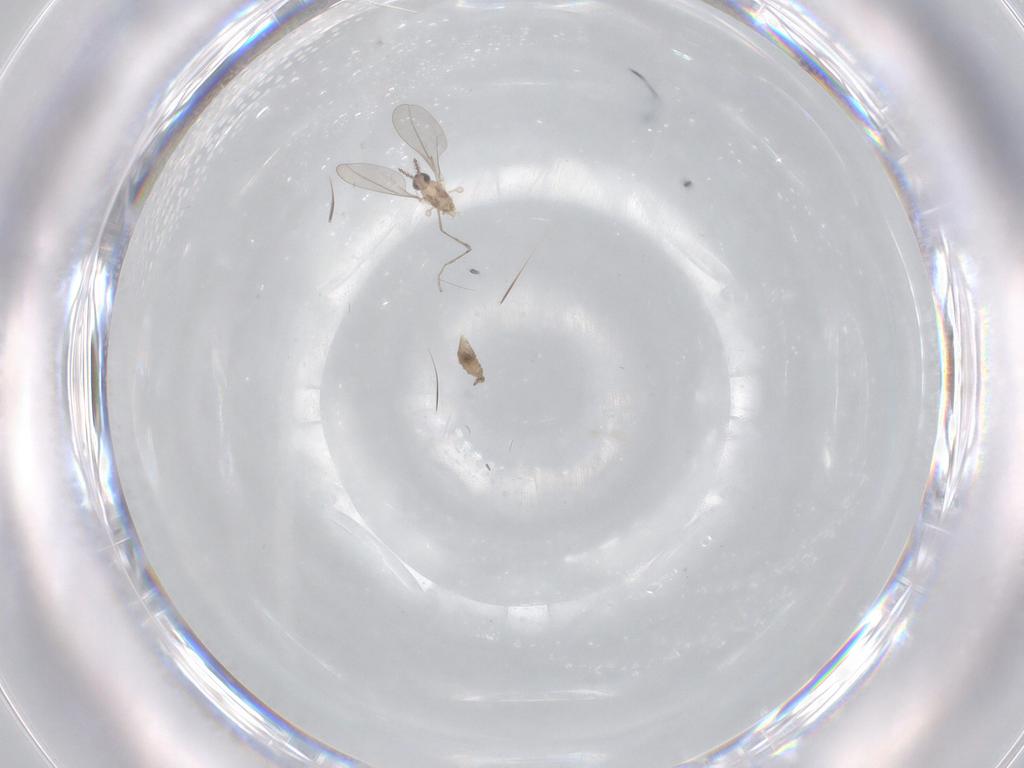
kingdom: Animalia
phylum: Arthropoda
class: Insecta
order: Diptera
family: Cecidomyiidae
